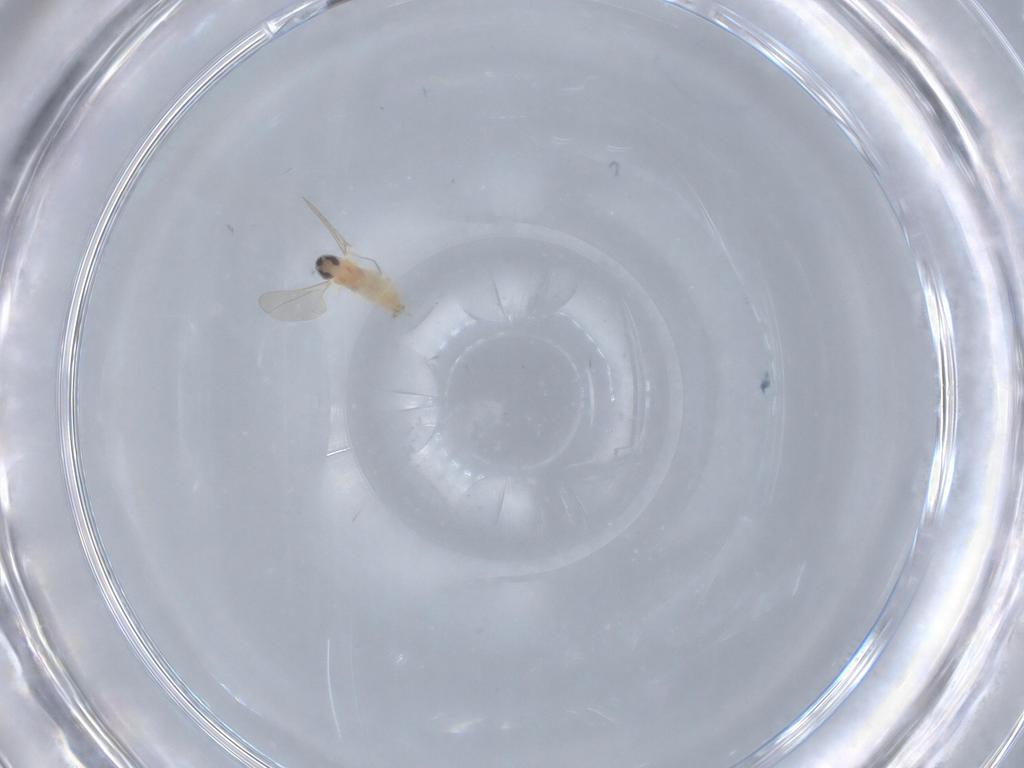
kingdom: Animalia
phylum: Arthropoda
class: Insecta
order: Diptera
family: Cecidomyiidae
